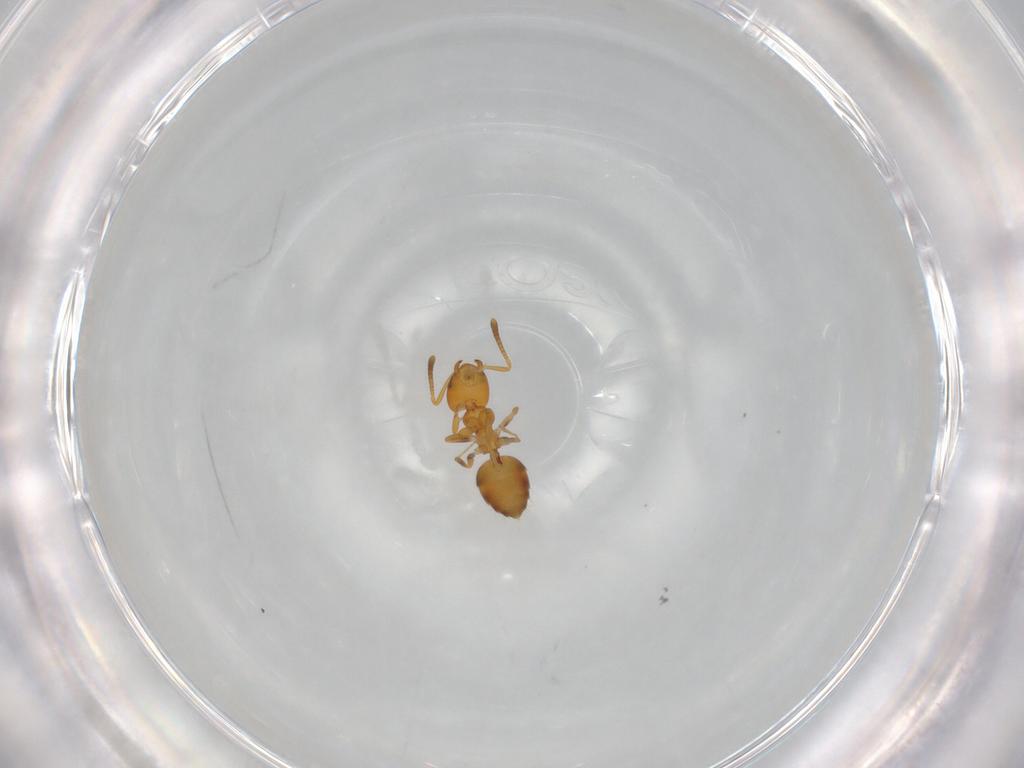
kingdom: Animalia
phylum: Arthropoda
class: Insecta
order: Hymenoptera
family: Formicidae
